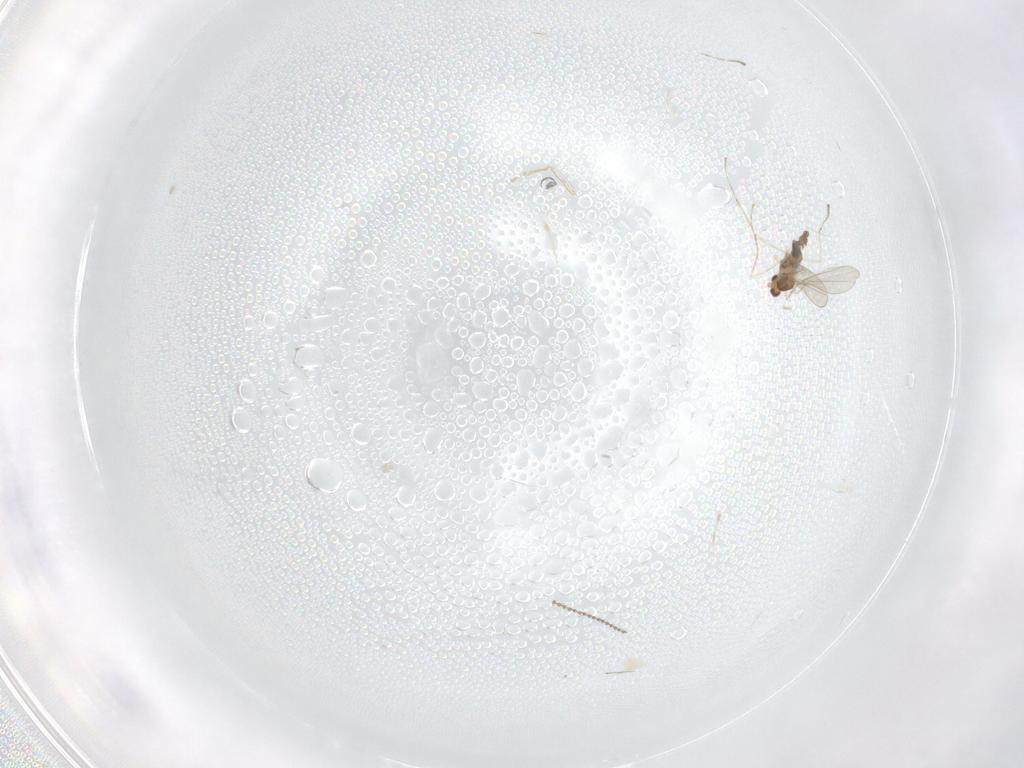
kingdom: Animalia
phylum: Arthropoda
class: Insecta
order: Diptera
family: Cecidomyiidae
